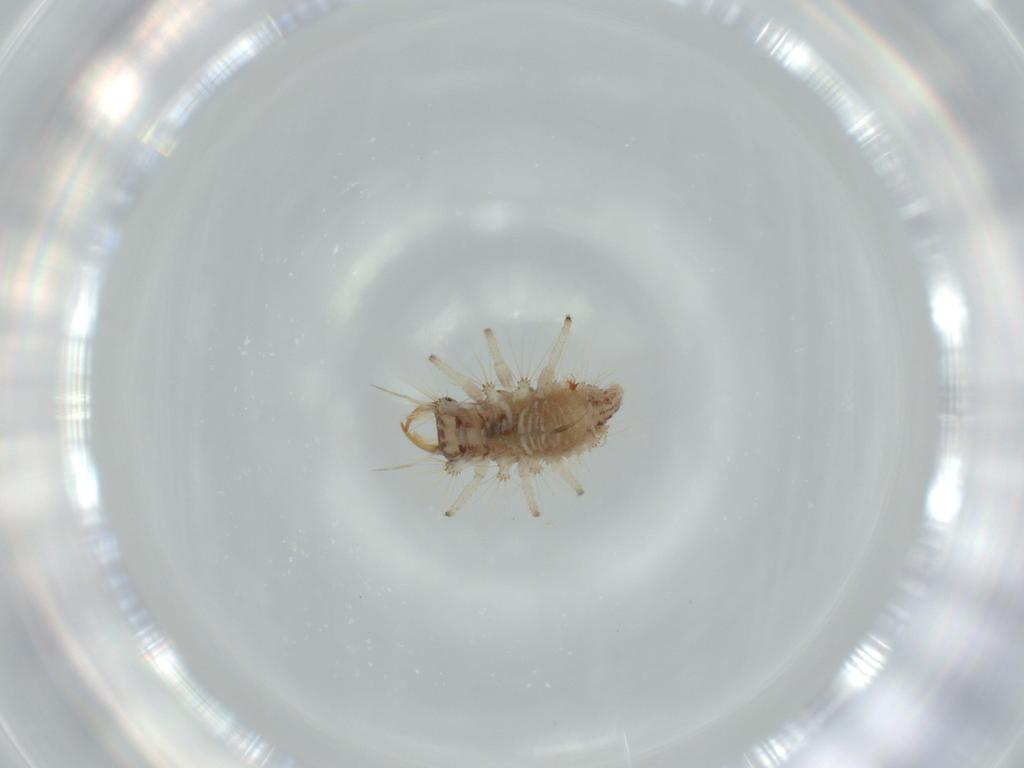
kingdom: Animalia
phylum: Arthropoda
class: Insecta
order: Neuroptera
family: Chrysopidae
